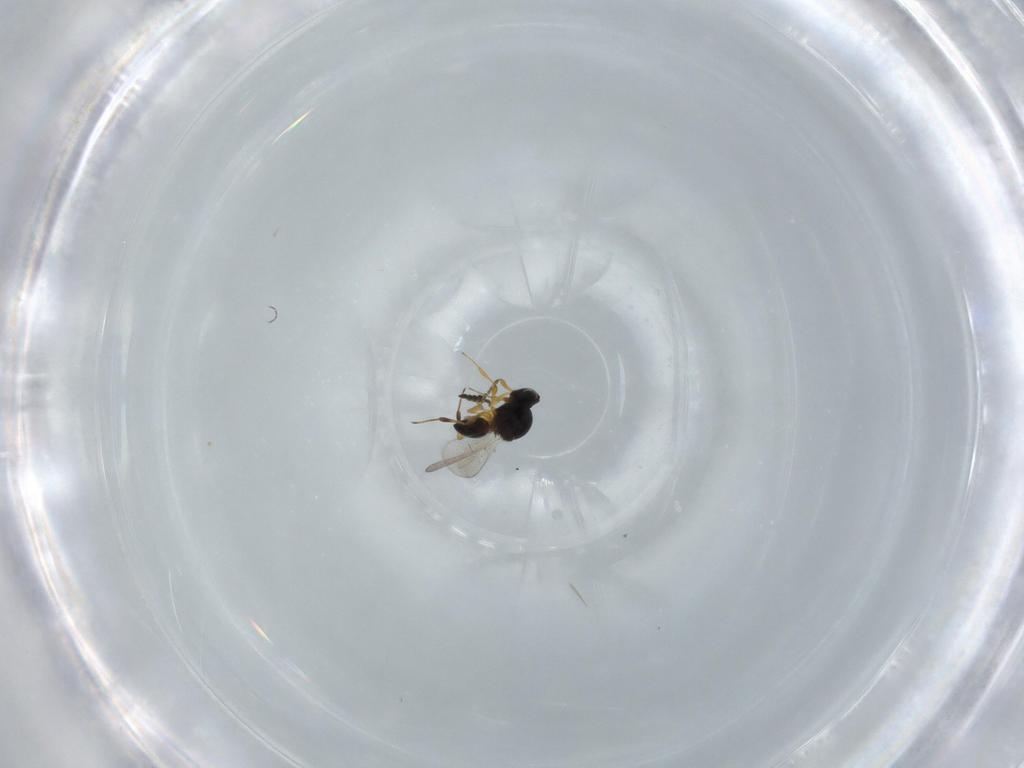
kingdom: Animalia
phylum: Arthropoda
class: Insecta
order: Hymenoptera
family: Platygastridae
